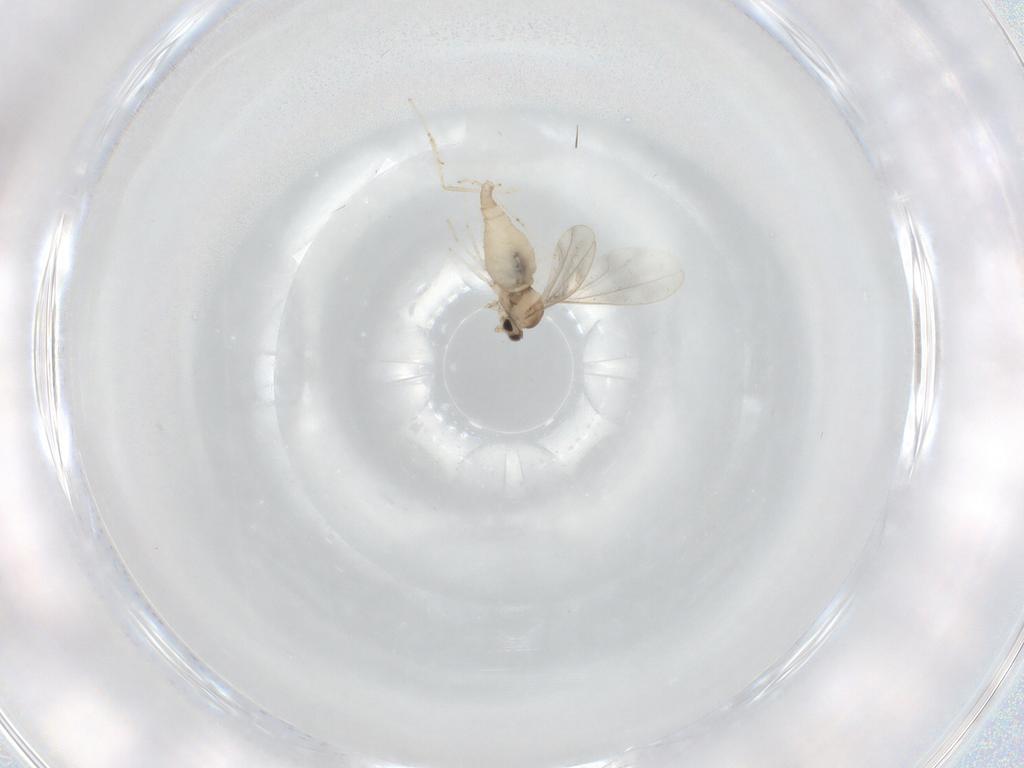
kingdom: Animalia
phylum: Arthropoda
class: Insecta
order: Diptera
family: Cecidomyiidae
